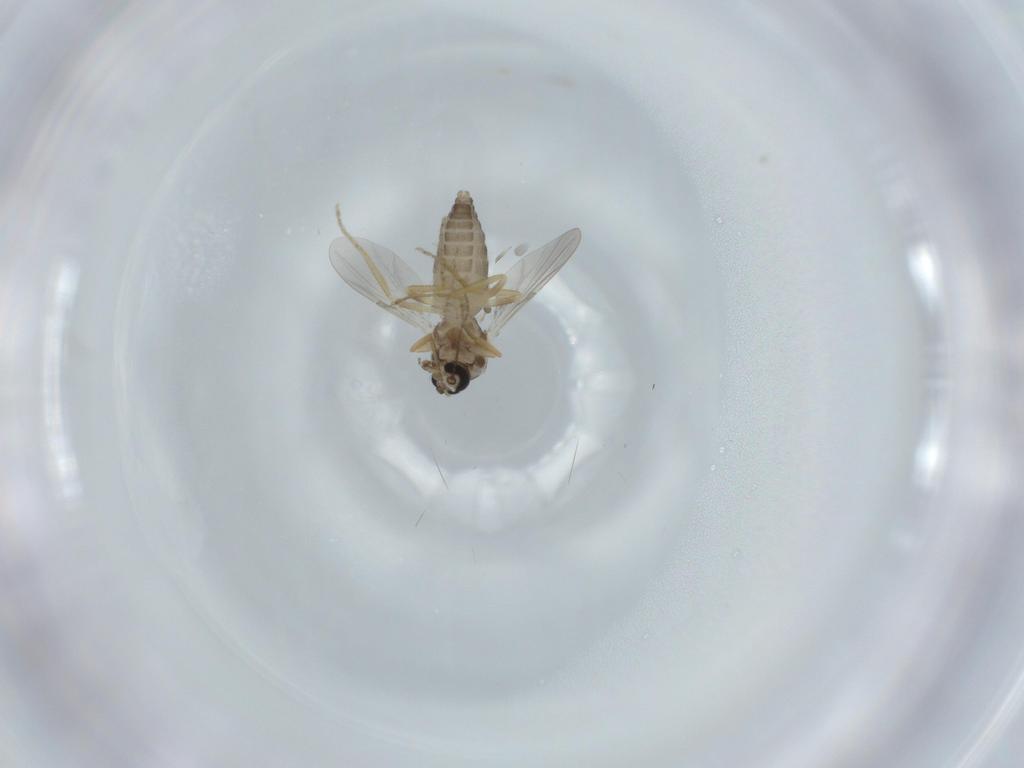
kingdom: Animalia
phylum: Arthropoda
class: Insecta
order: Diptera
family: Ceratopogonidae
